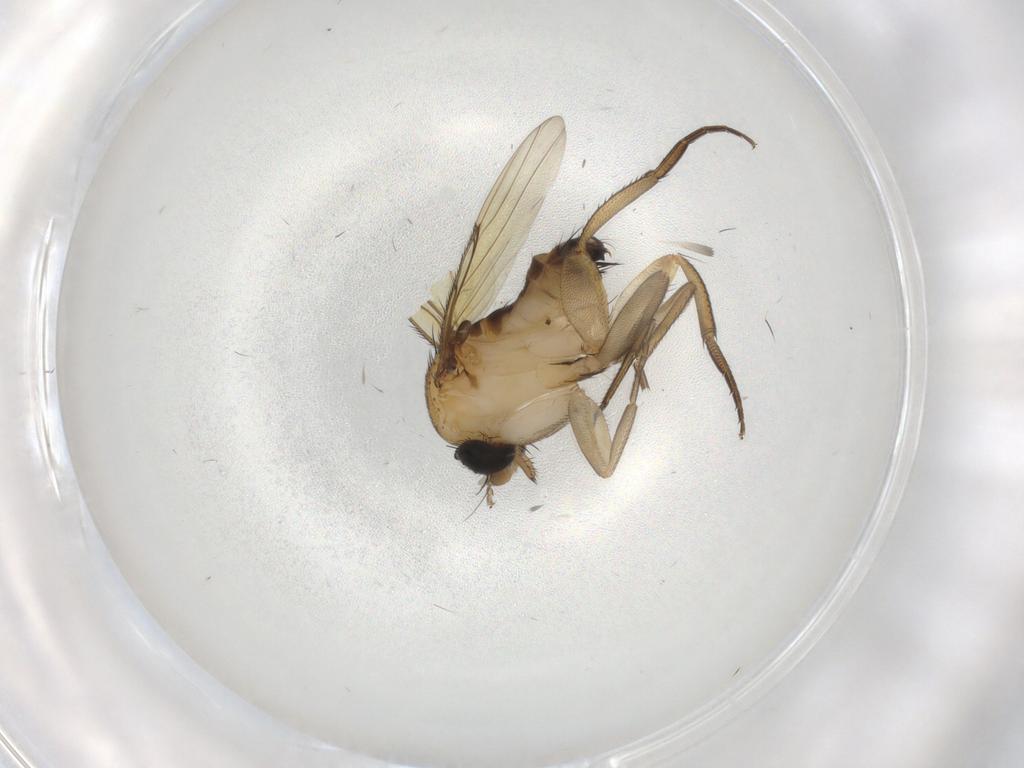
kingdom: Animalia
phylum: Arthropoda
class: Insecta
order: Diptera
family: Phoridae
